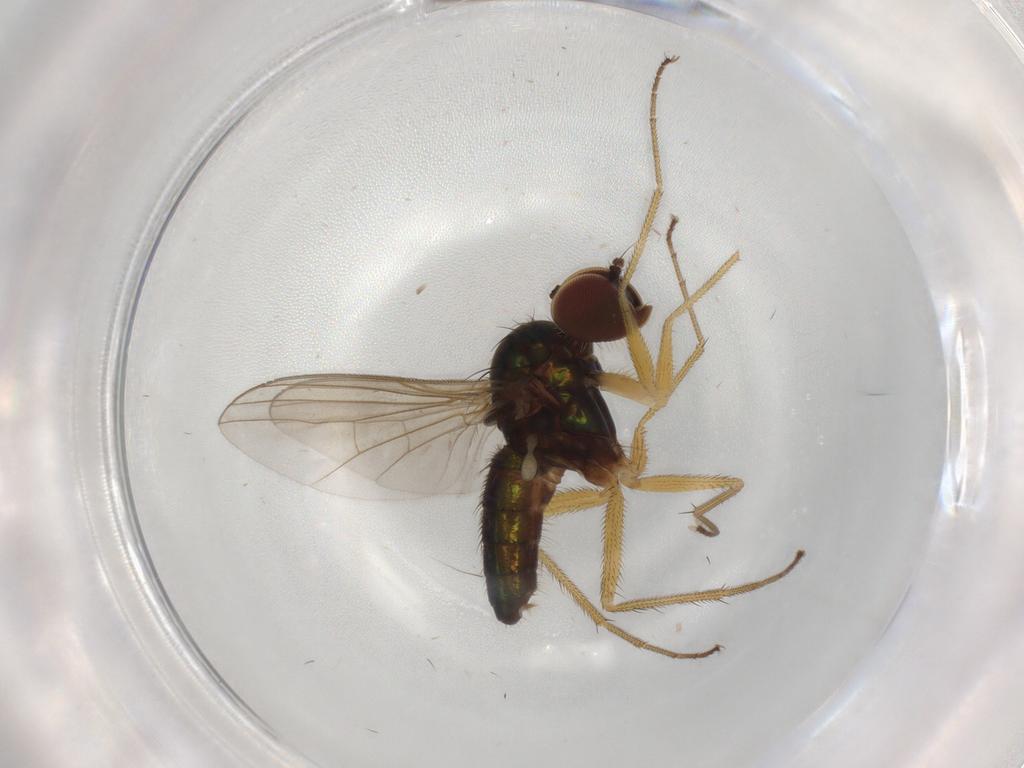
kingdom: Animalia
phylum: Arthropoda
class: Insecta
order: Diptera
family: Dolichopodidae
